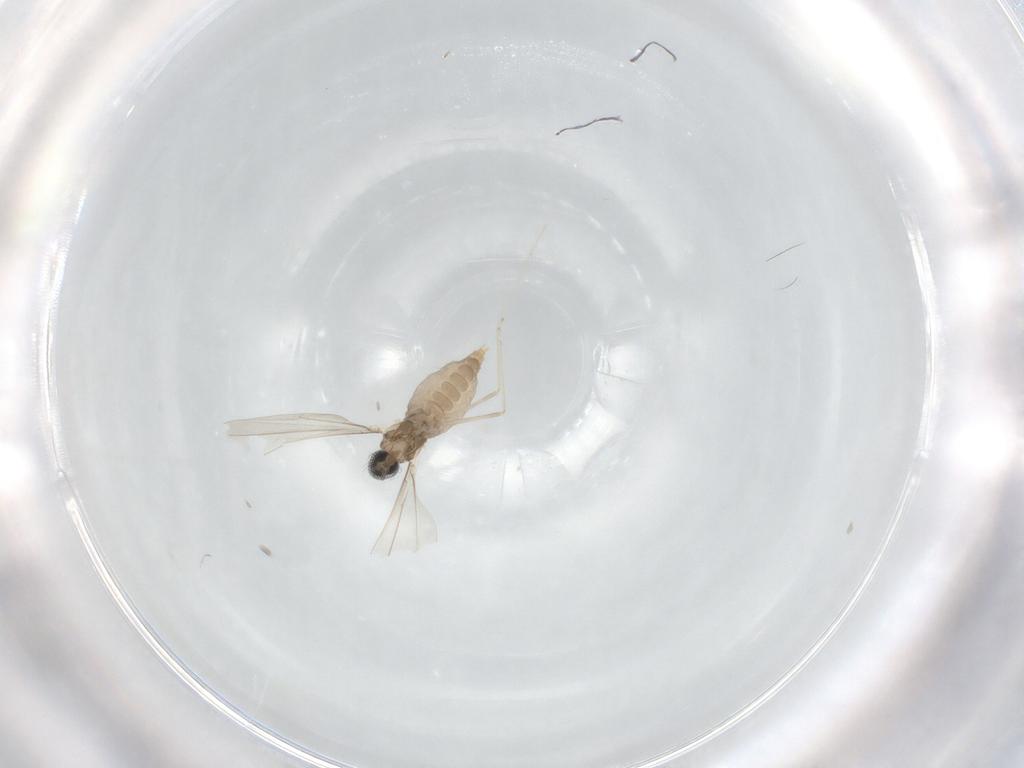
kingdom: Animalia
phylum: Arthropoda
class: Insecta
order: Diptera
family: Cecidomyiidae
